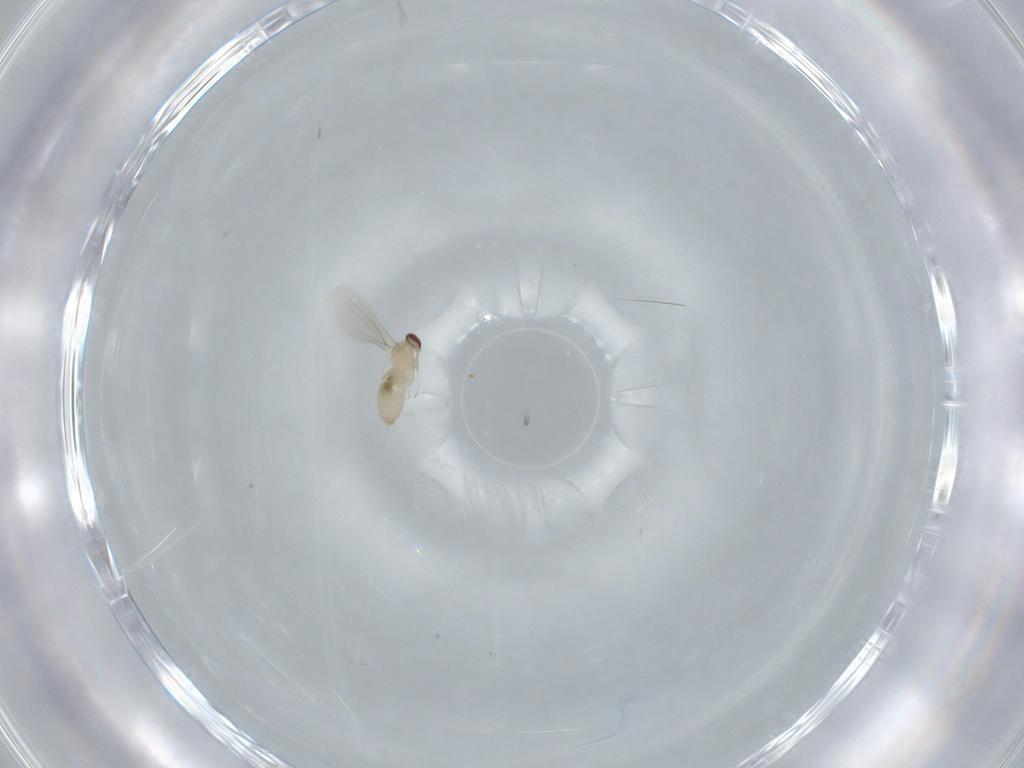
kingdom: Animalia
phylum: Arthropoda
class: Insecta
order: Diptera
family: Cecidomyiidae
